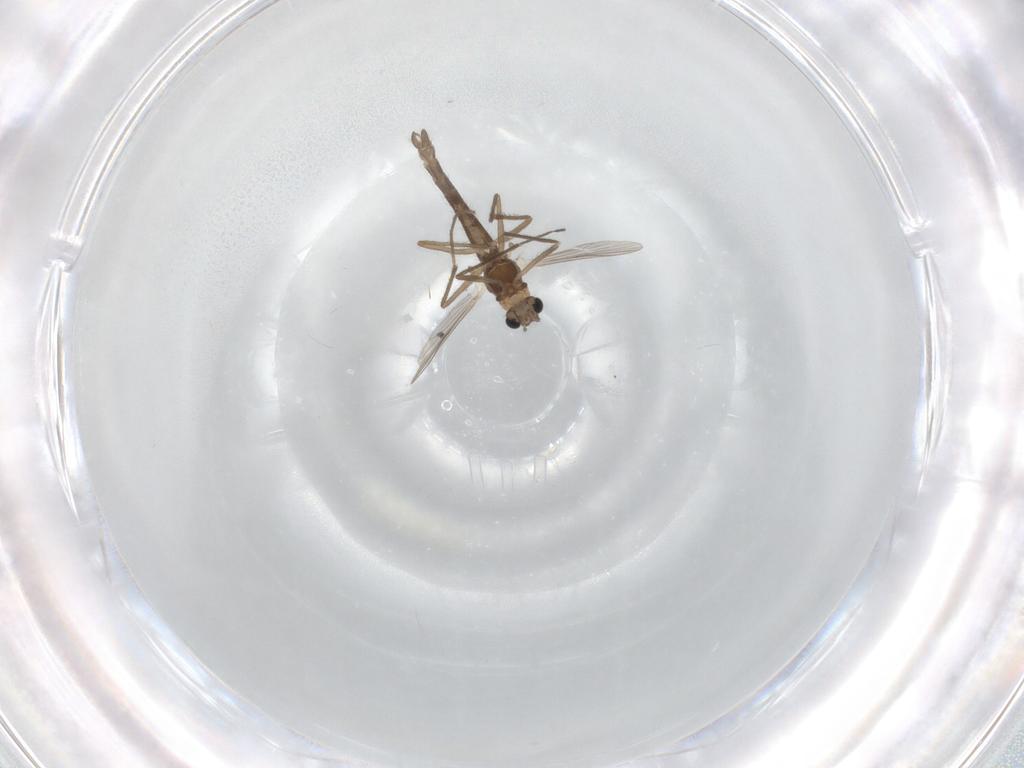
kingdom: Animalia
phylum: Arthropoda
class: Insecta
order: Diptera
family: Chironomidae
